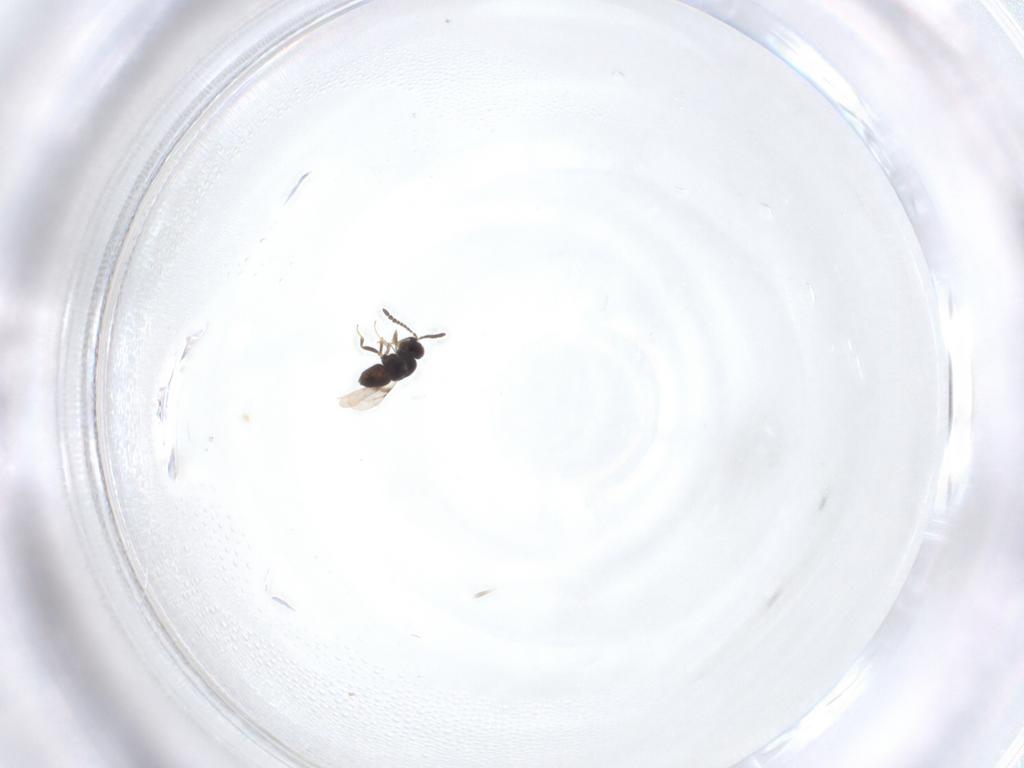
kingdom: Animalia
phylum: Arthropoda
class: Insecta
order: Hymenoptera
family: Ceraphronidae
